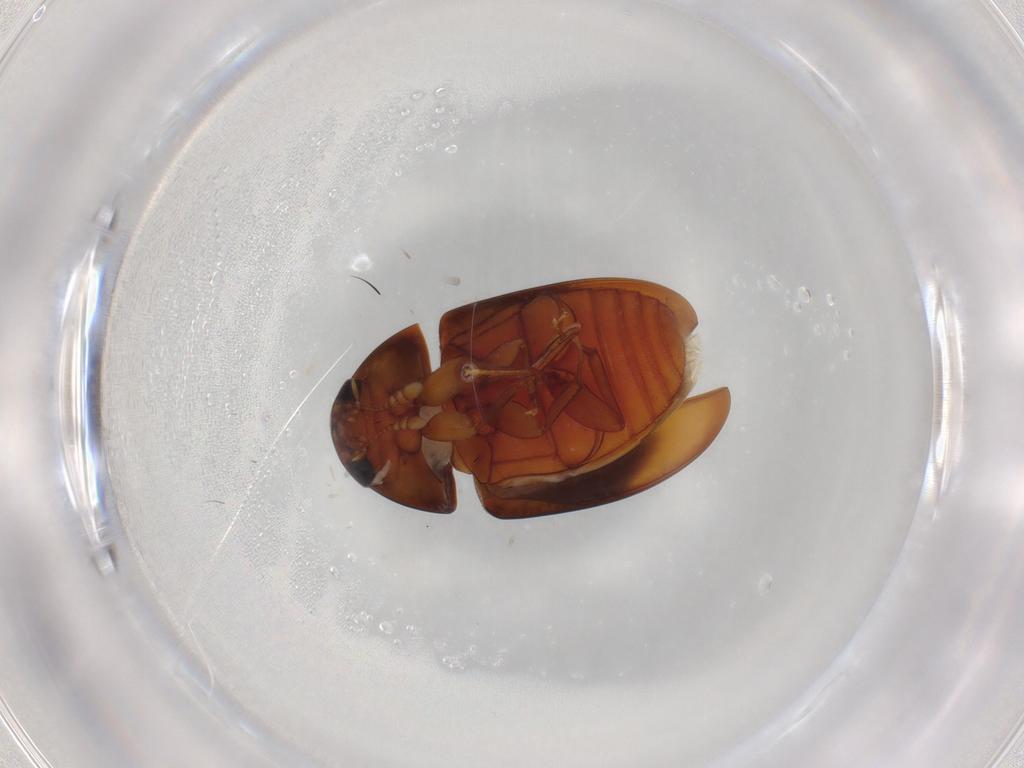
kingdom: Animalia
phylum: Arthropoda
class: Insecta
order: Coleoptera
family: Phalacridae
